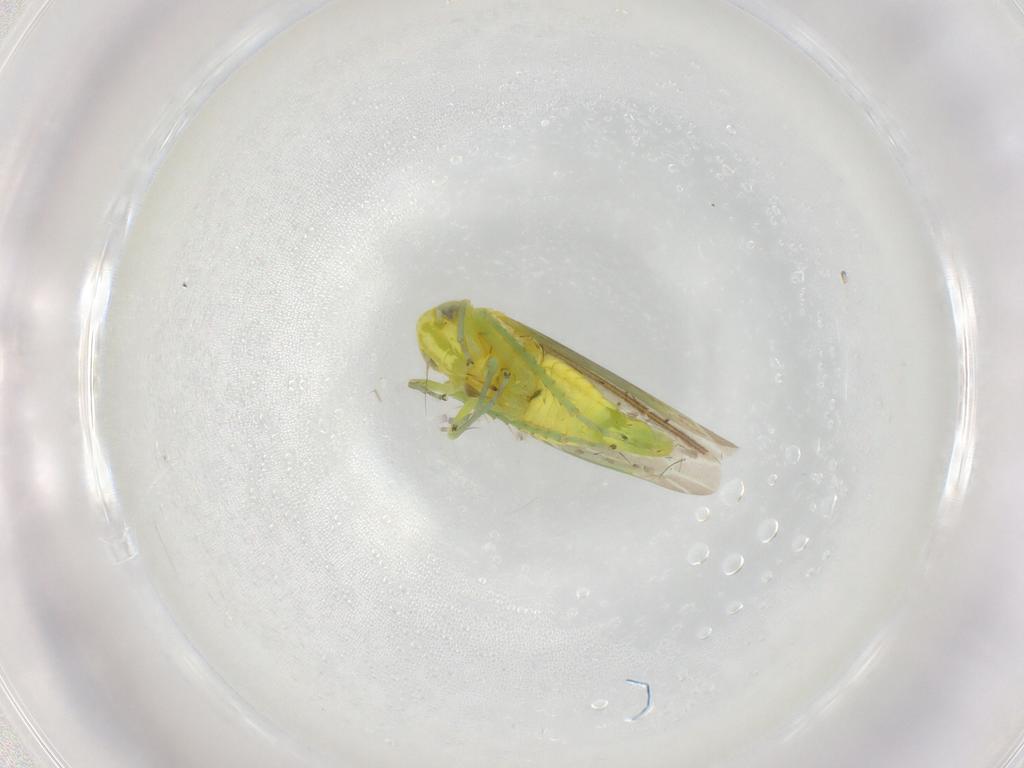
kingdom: Animalia
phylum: Arthropoda
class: Insecta
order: Hemiptera
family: Cicadellidae
